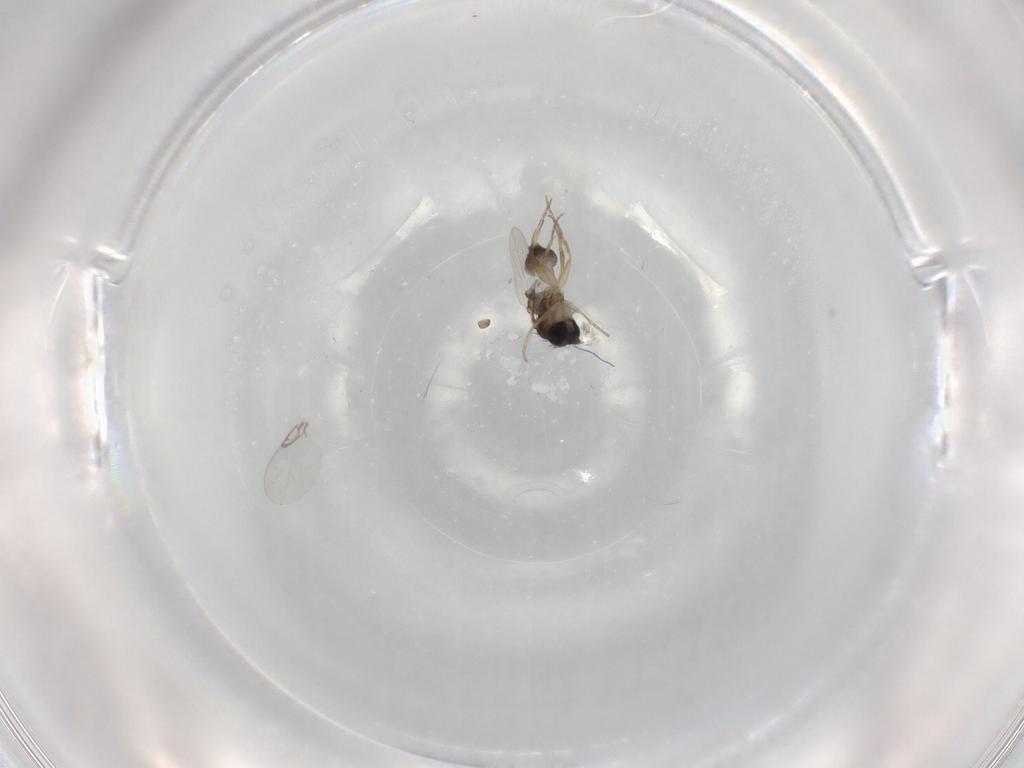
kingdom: Animalia
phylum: Arthropoda
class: Insecta
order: Diptera
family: Phoridae
